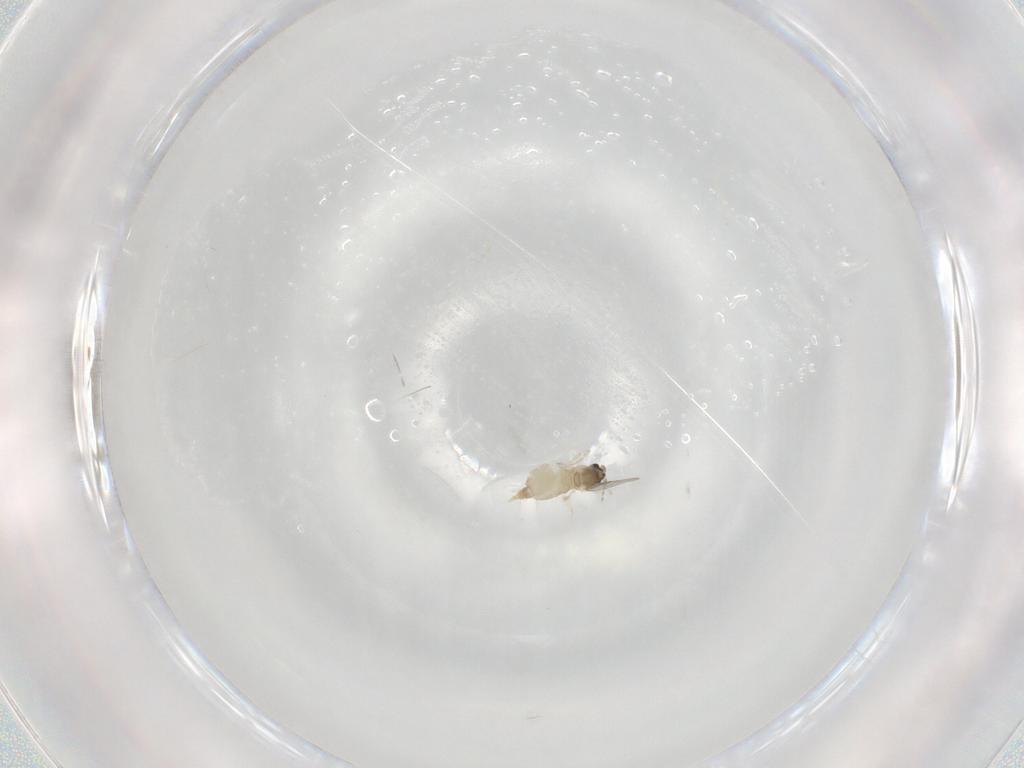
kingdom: Animalia
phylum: Arthropoda
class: Insecta
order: Diptera
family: Cecidomyiidae
